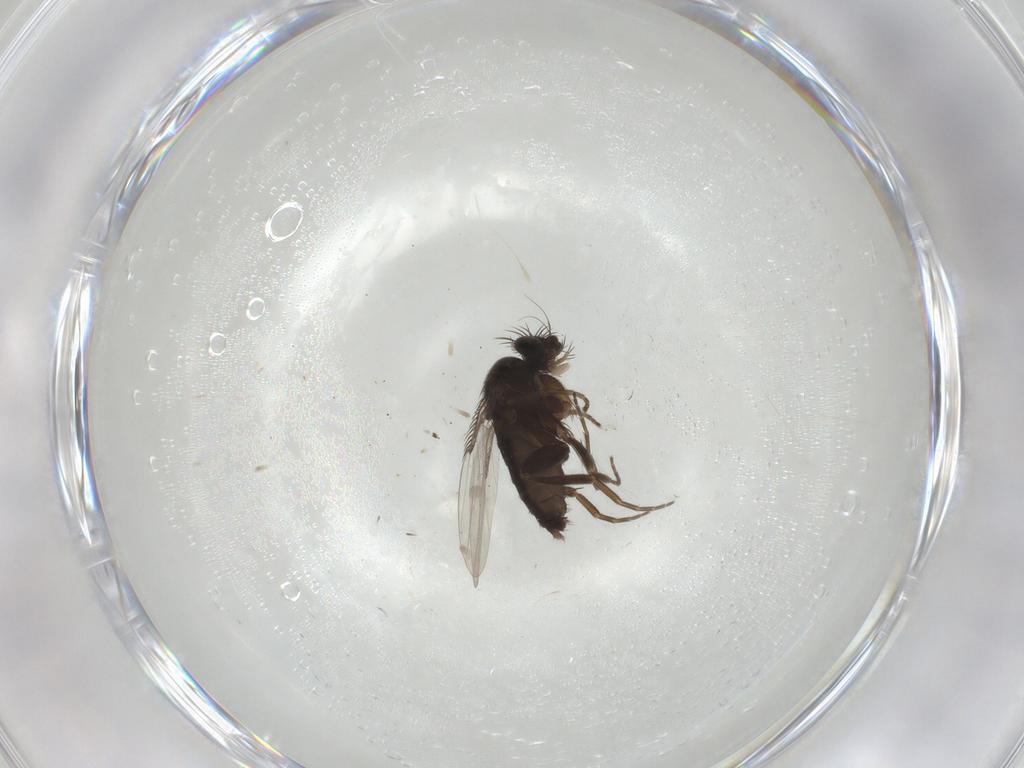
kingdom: Animalia
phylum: Arthropoda
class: Insecta
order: Diptera
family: Phoridae
